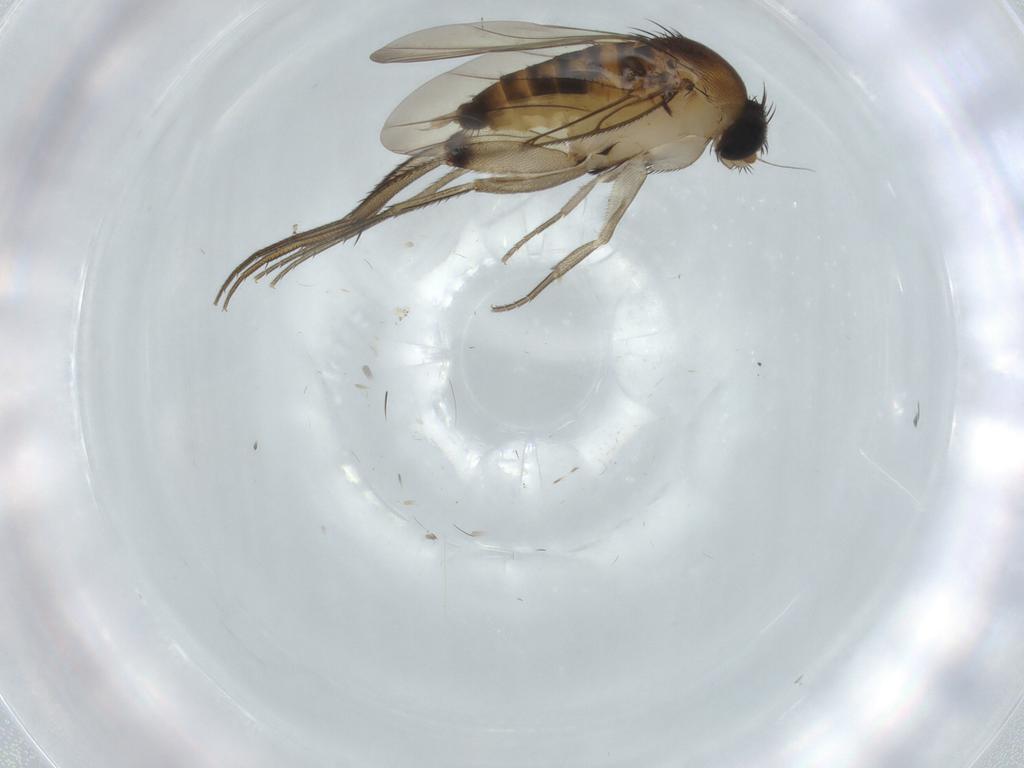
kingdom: Animalia
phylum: Arthropoda
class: Insecta
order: Diptera
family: Phoridae
